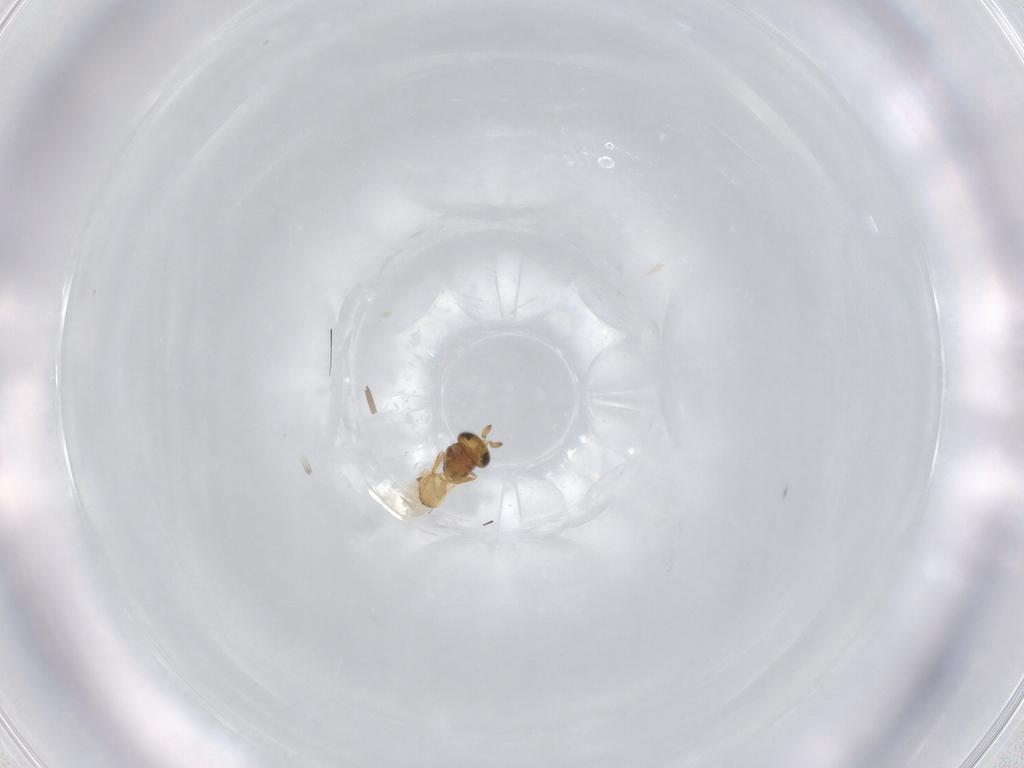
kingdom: Animalia
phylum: Arthropoda
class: Insecta
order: Hymenoptera
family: Scelionidae
